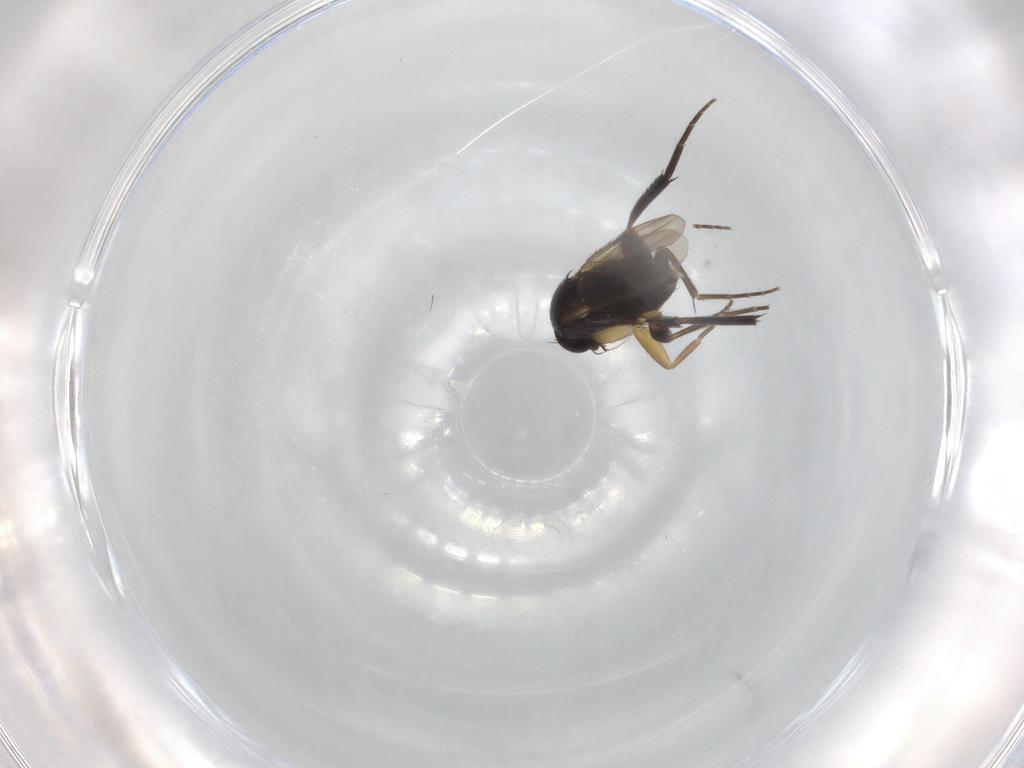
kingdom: Animalia
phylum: Arthropoda
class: Insecta
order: Diptera
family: Phoridae
